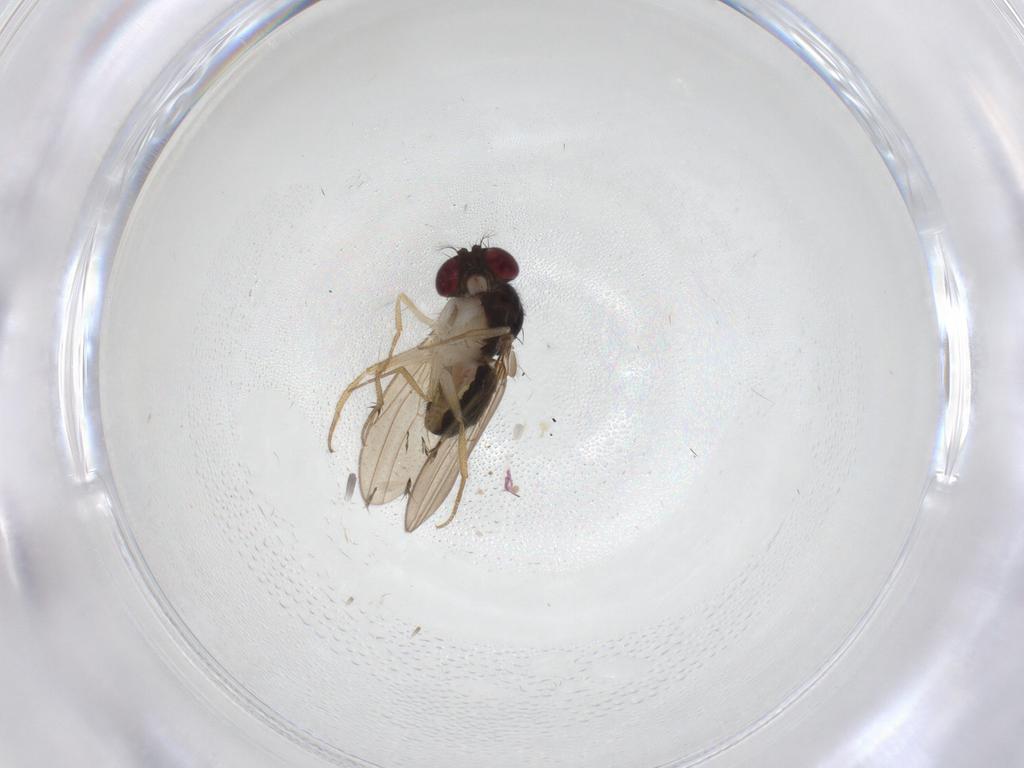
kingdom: Animalia
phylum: Arthropoda
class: Insecta
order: Diptera
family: Drosophilidae
